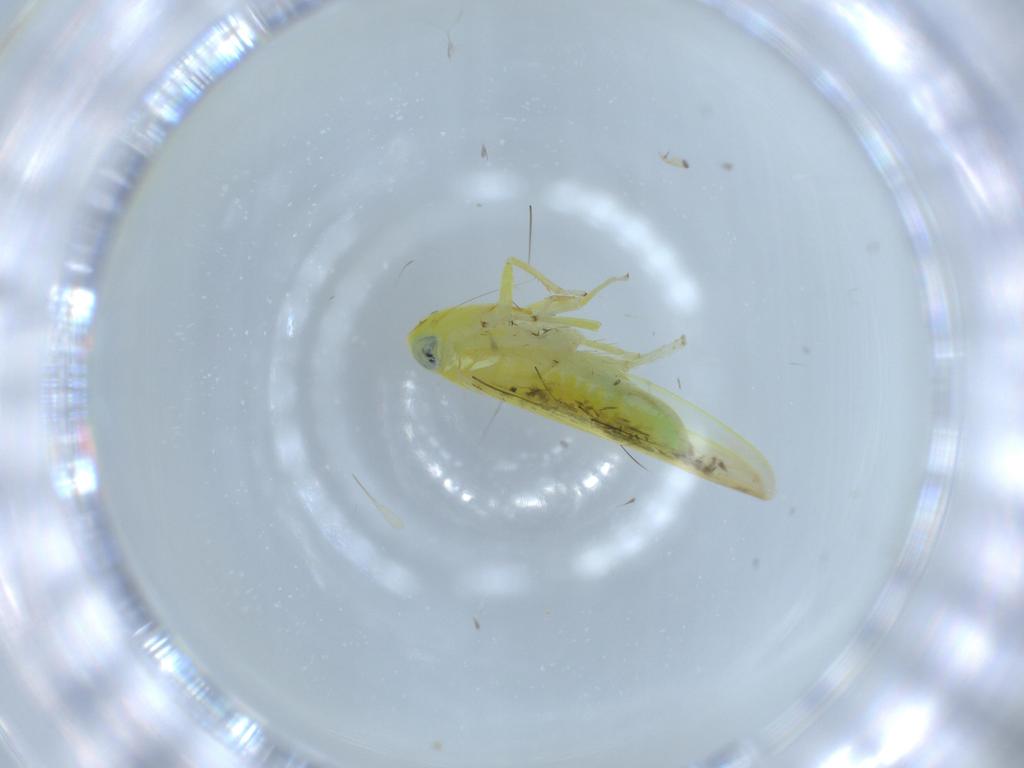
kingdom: Animalia
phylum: Arthropoda
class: Insecta
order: Hemiptera
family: Cicadellidae
